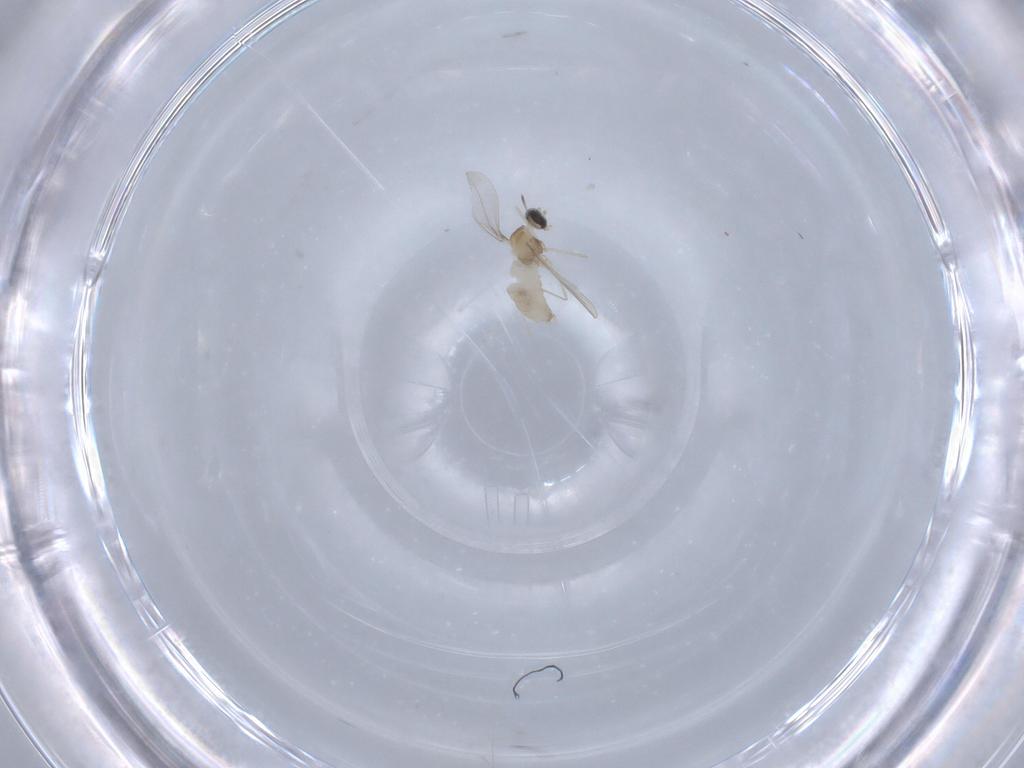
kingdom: Animalia
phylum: Arthropoda
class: Insecta
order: Diptera
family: Cecidomyiidae
